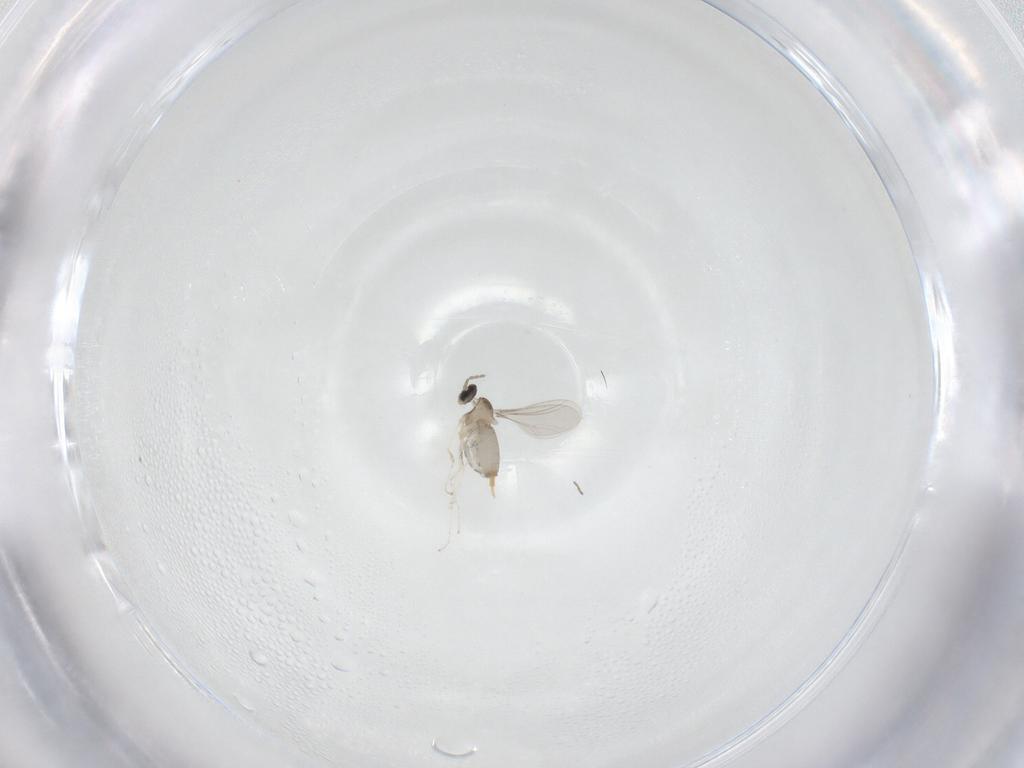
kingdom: Animalia
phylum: Arthropoda
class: Insecta
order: Diptera
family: Cecidomyiidae
